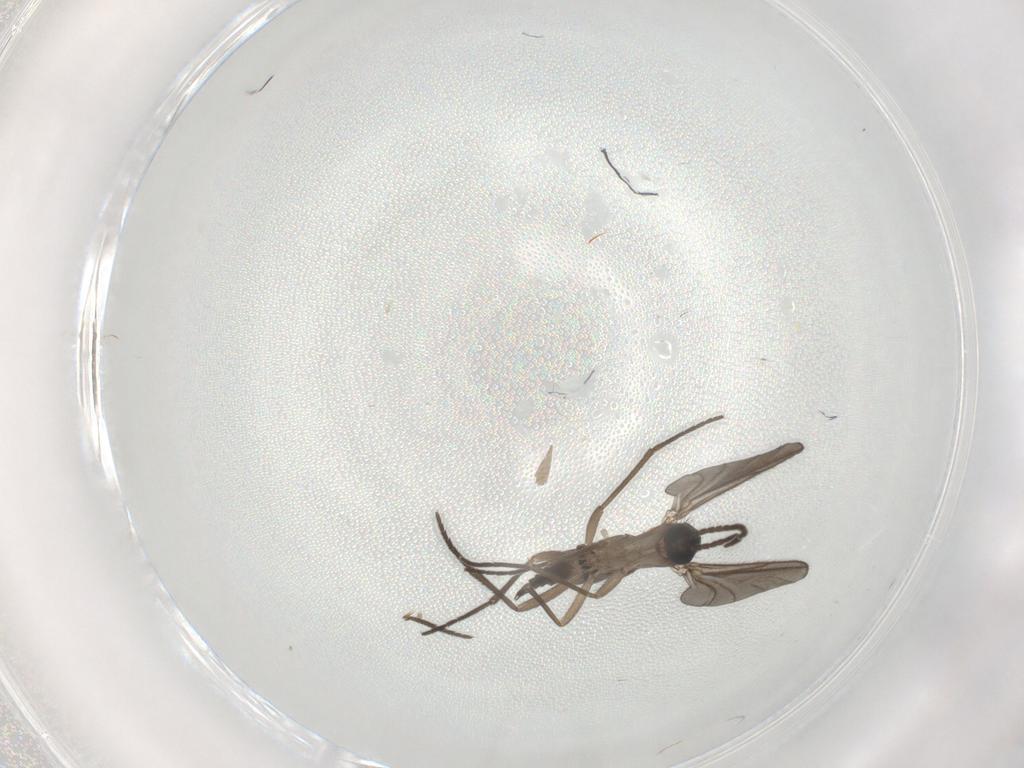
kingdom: Animalia
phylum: Arthropoda
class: Insecta
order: Diptera
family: Sciaridae
